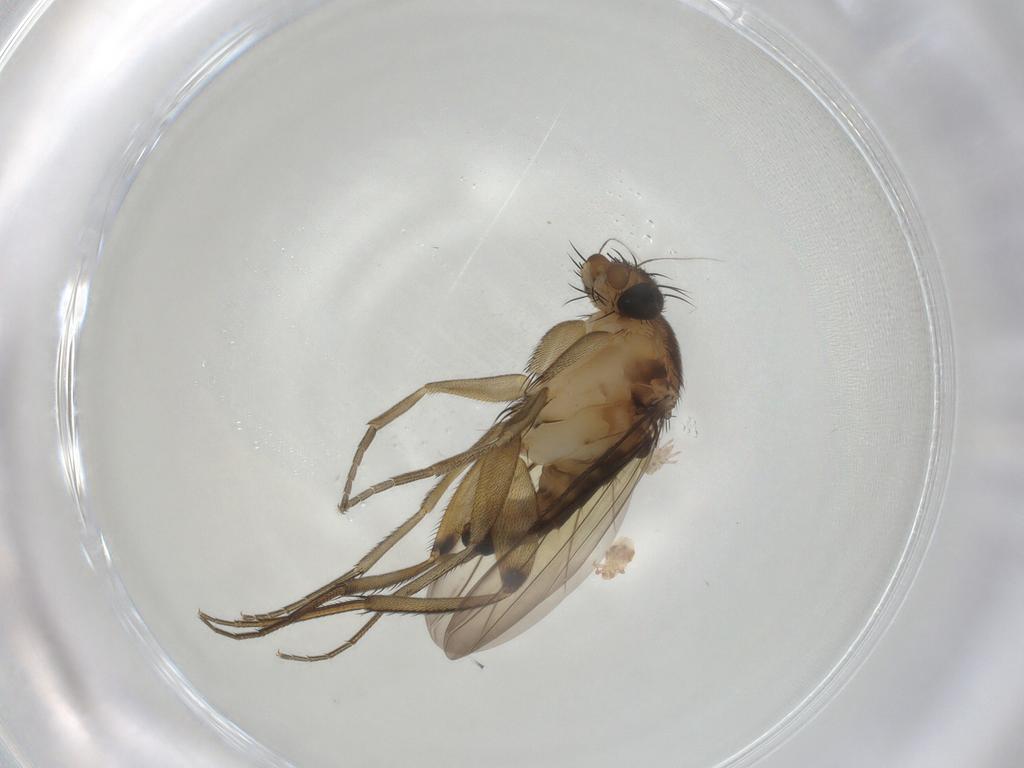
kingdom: Animalia
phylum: Arthropoda
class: Insecta
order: Diptera
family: Phoridae
